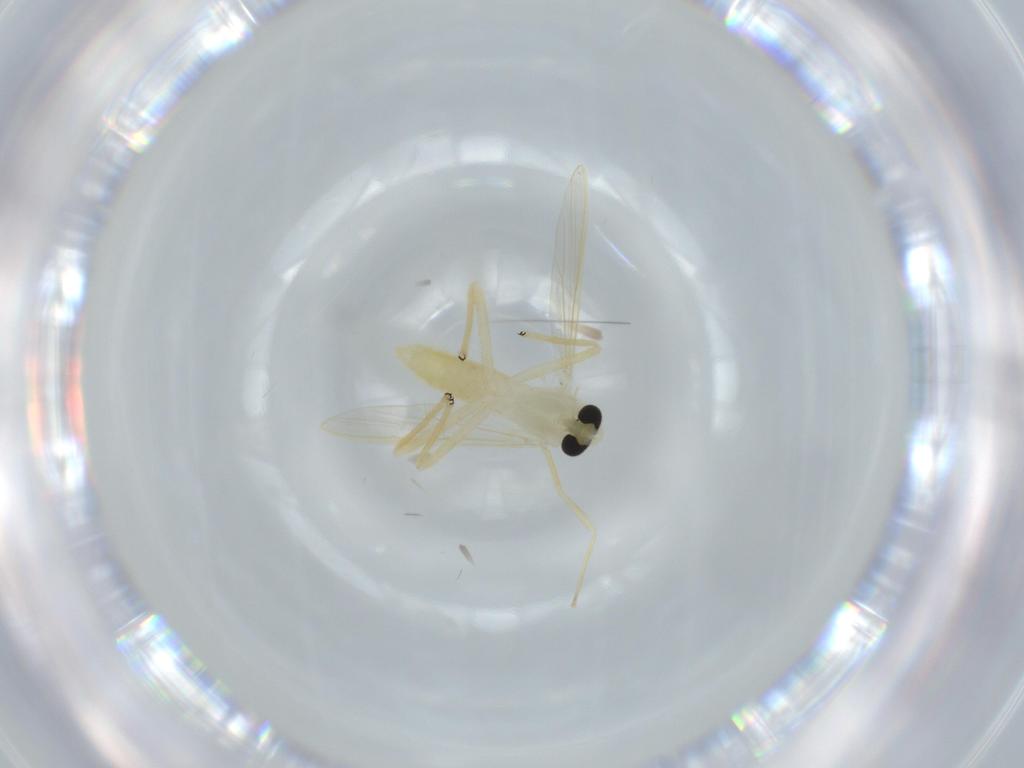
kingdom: Animalia
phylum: Arthropoda
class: Insecta
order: Diptera
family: Chironomidae
